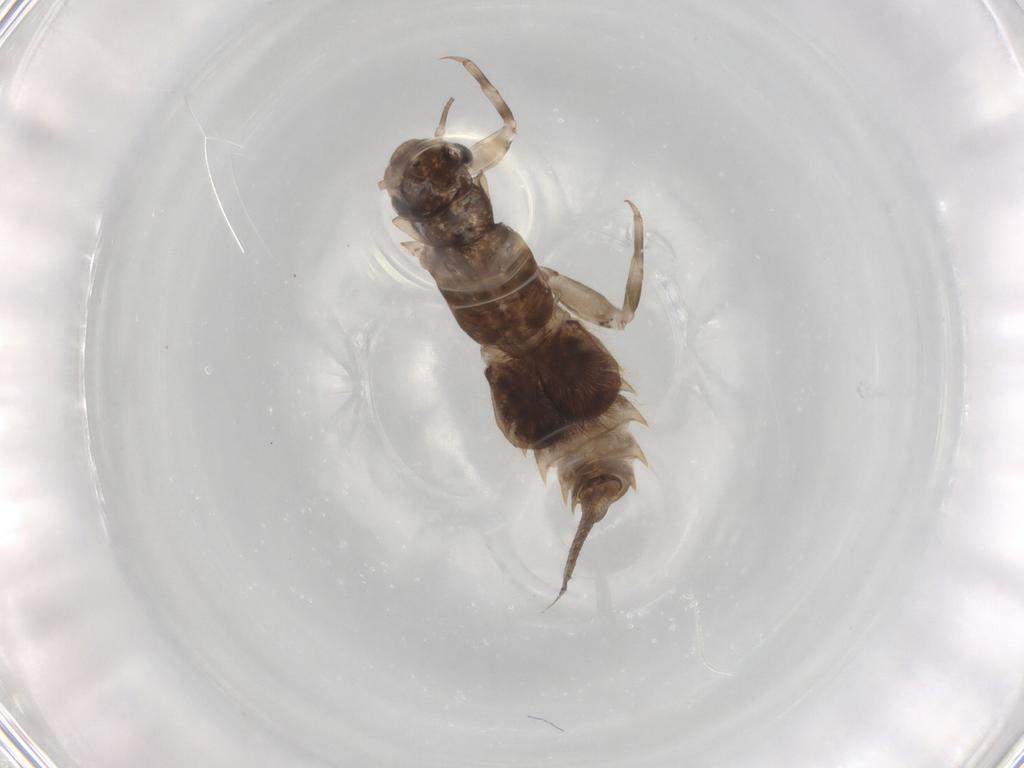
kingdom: Animalia
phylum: Arthropoda
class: Insecta
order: Ephemeroptera
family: Caenidae
